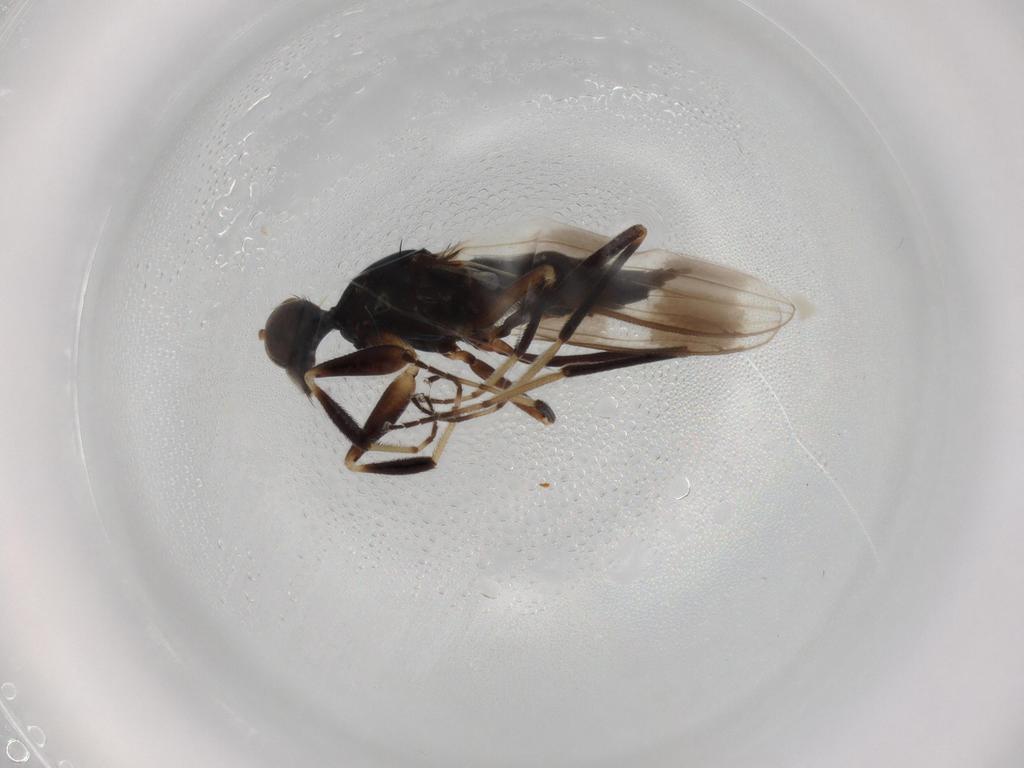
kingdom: Animalia
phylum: Arthropoda
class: Insecta
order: Diptera
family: Hybotidae
